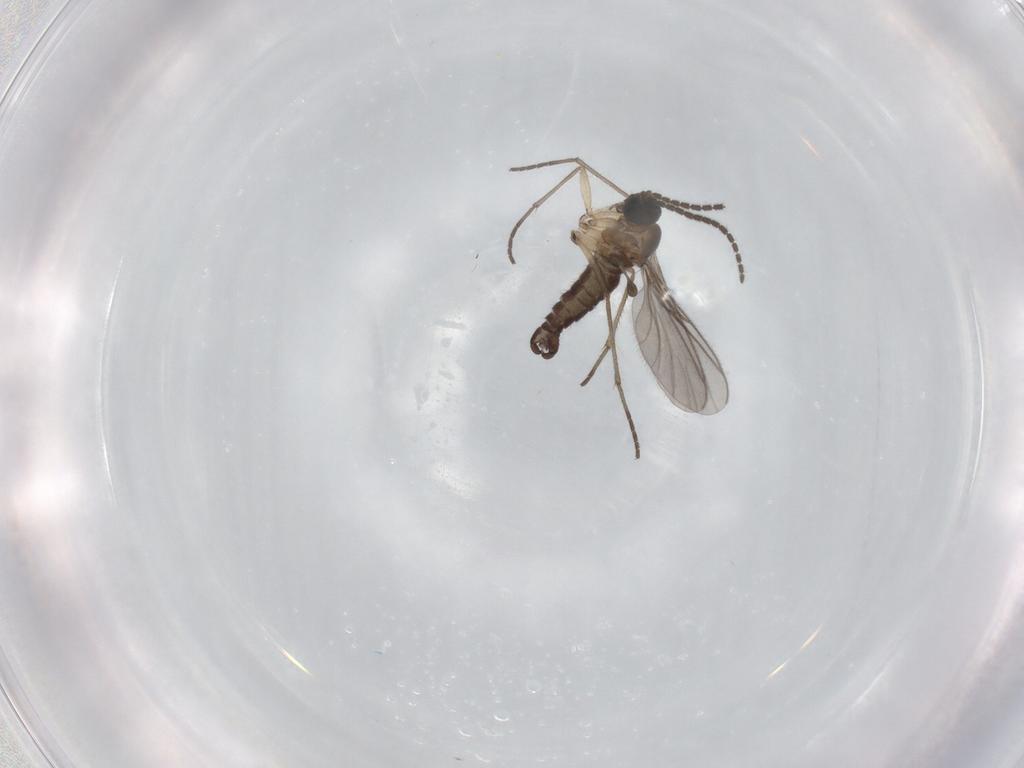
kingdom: Animalia
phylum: Arthropoda
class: Insecta
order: Diptera
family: Sciaridae
